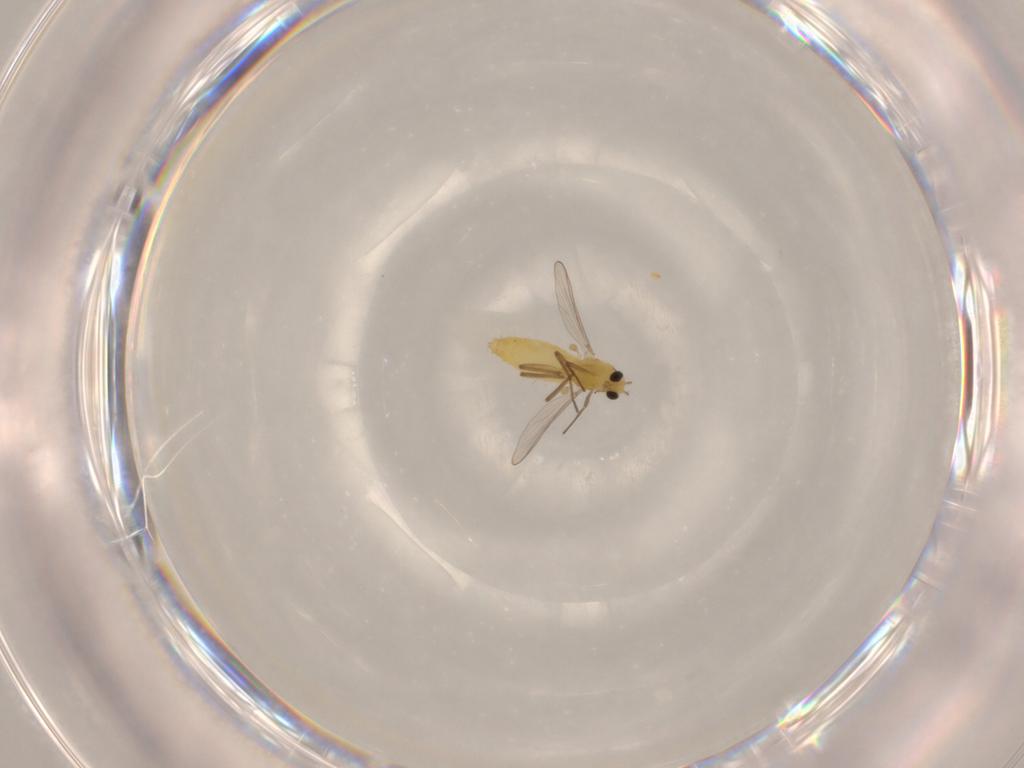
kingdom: Animalia
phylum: Arthropoda
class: Insecta
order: Diptera
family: Chironomidae
